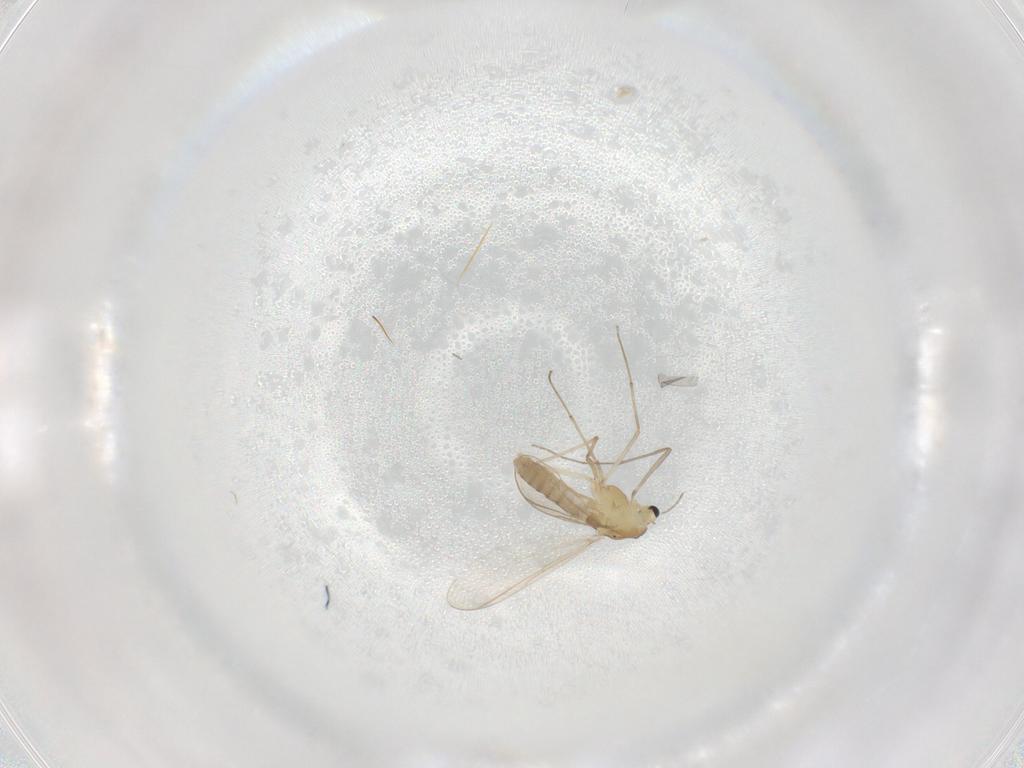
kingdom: Animalia
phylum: Arthropoda
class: Insecta
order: Diptera
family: Chironomidae
